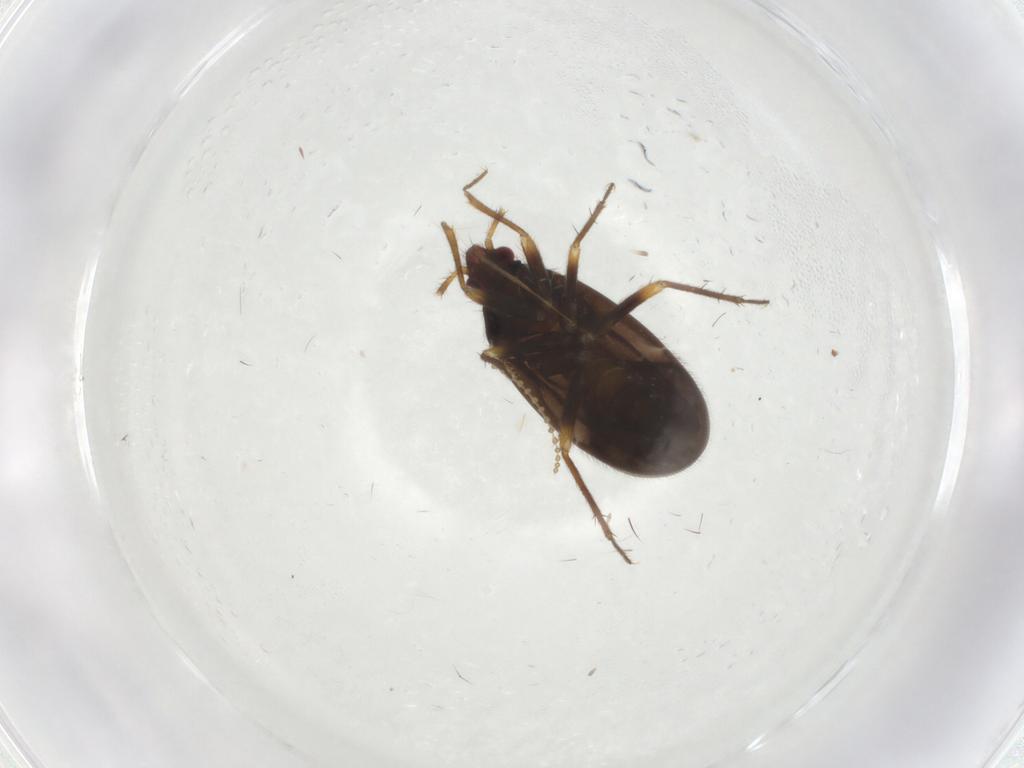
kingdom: Animalia
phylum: Arthropoda
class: Insecta
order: Hemiptera
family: Ceratocombidae
